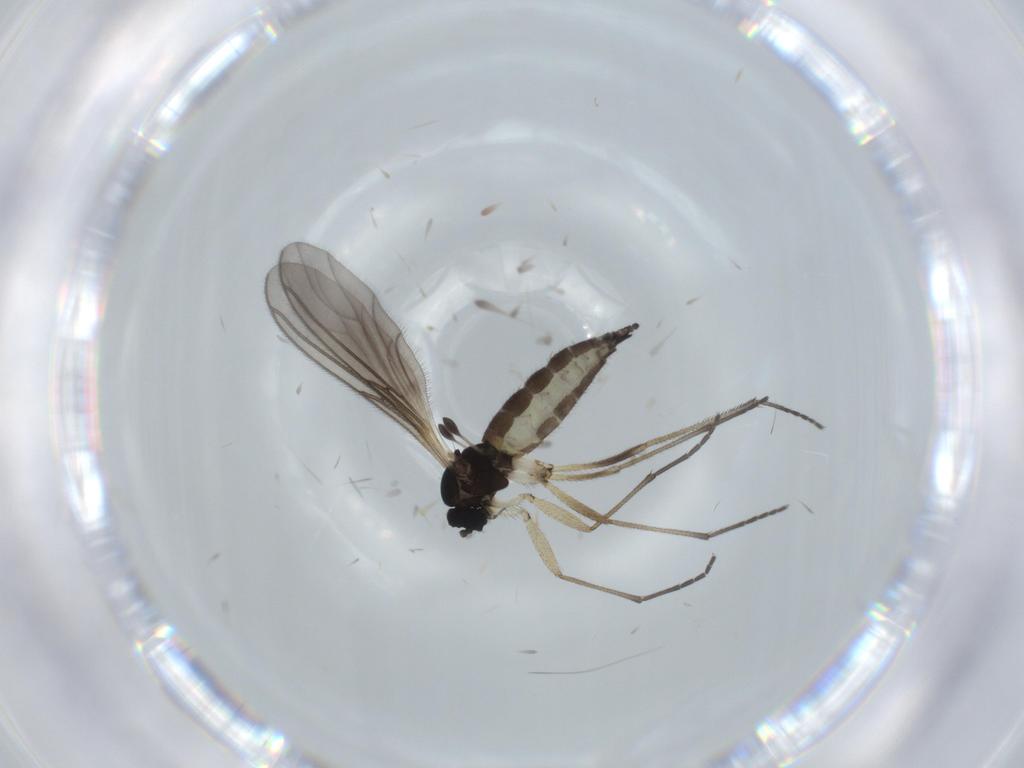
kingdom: Animalia
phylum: Arthropoda
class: Insecta
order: Diptera
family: Sciaridae
